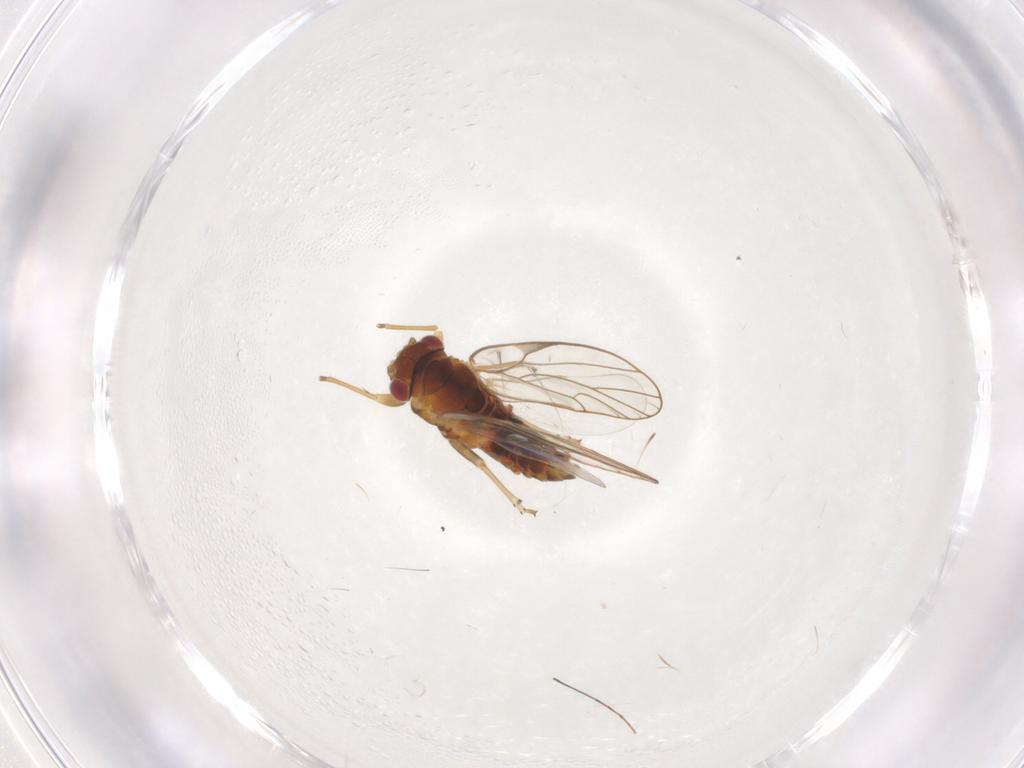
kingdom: Animalia
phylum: Arthropoda
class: Insecta
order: Hemiptera
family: Psyllidae
